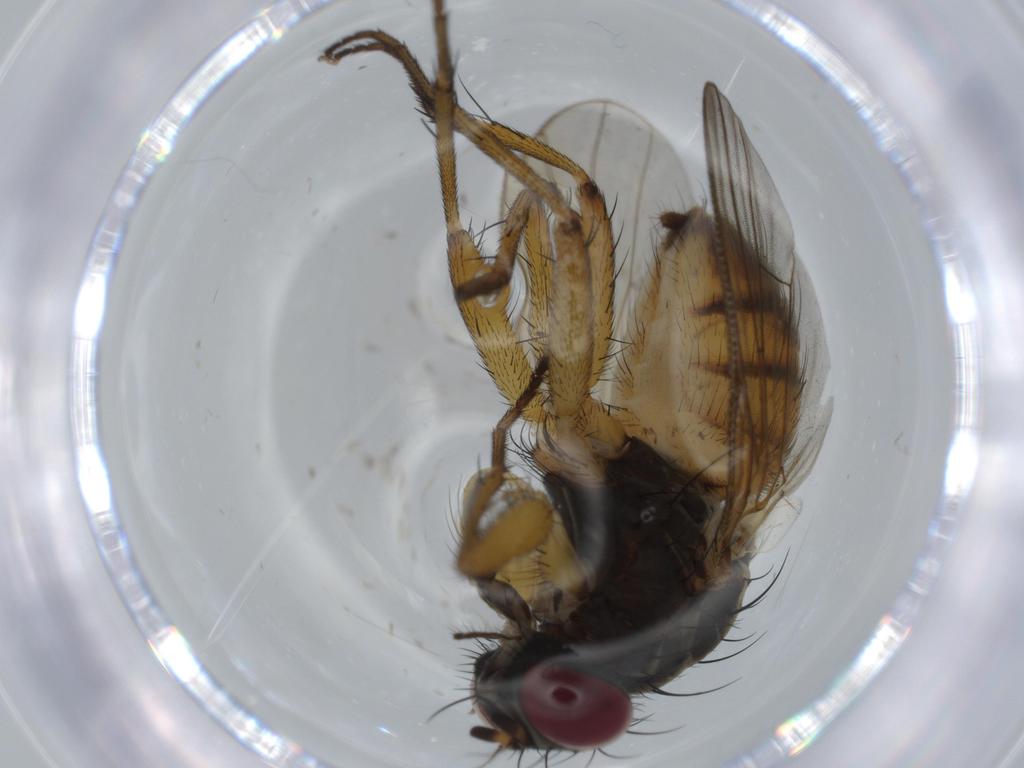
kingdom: Animalia
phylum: Arthropoda
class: Insecta
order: Diptera
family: Muscidae
